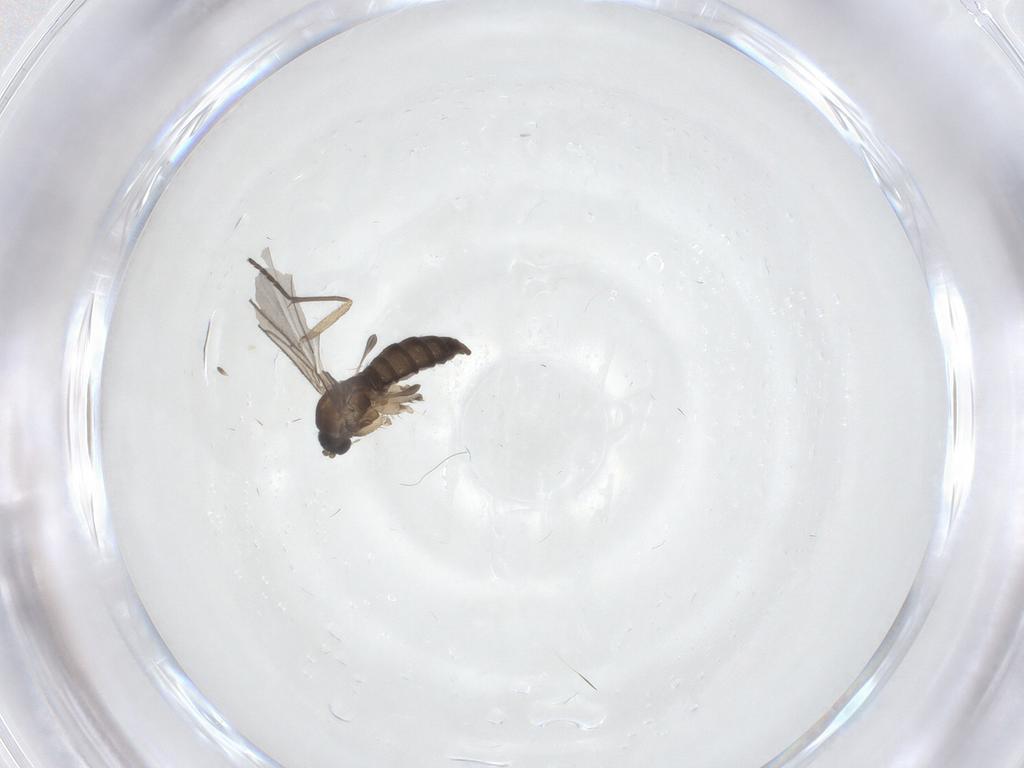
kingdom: Animalia
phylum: Arthropoda
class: Insecta
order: Diptera
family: Sciaridae
